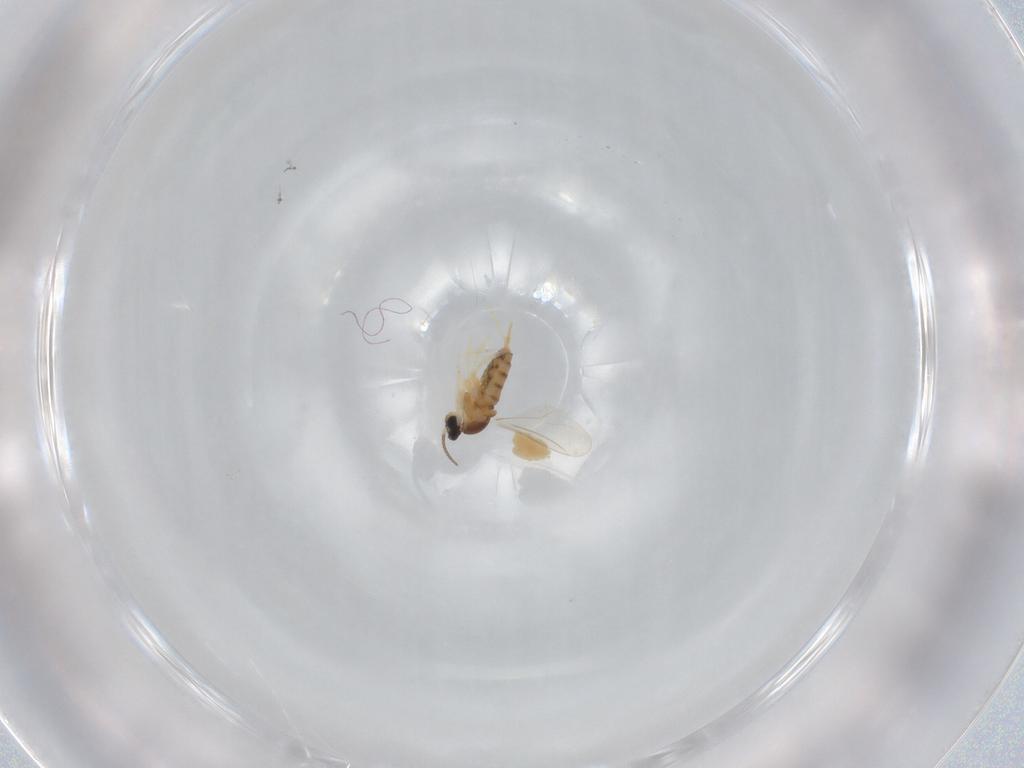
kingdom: Animalia
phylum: Arthropoda
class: Insecta
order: Diptera
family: Cecidomyiidae
